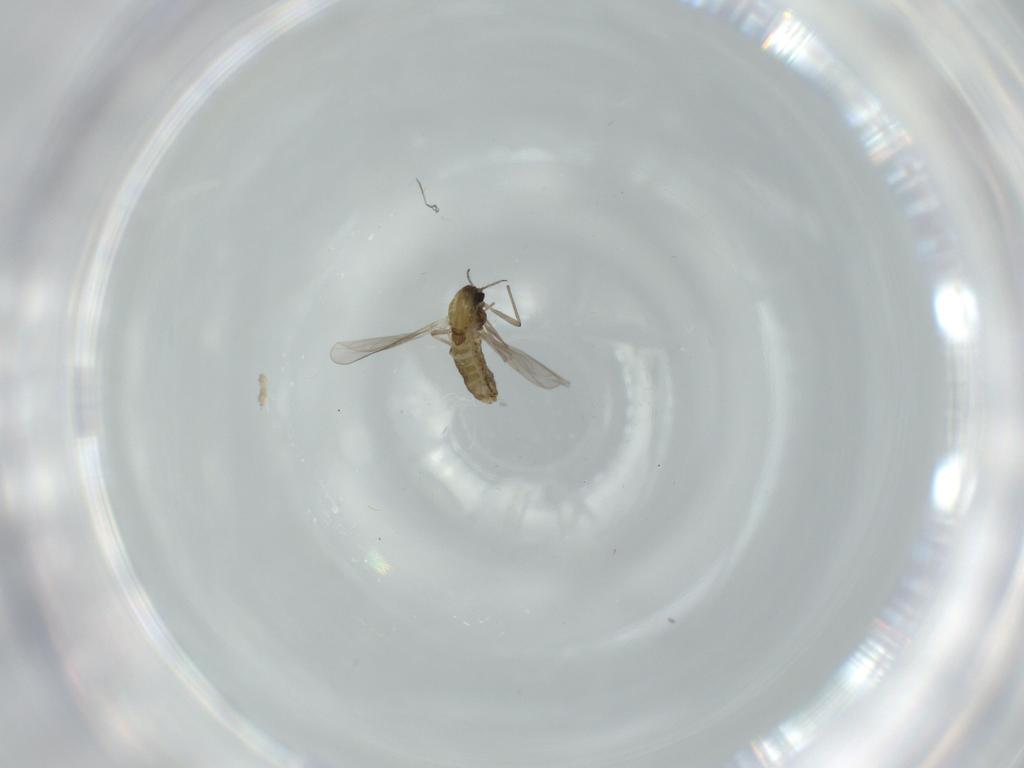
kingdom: Animalia
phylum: Arthropoda
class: Insecta
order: Diptera
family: Chironomidae
